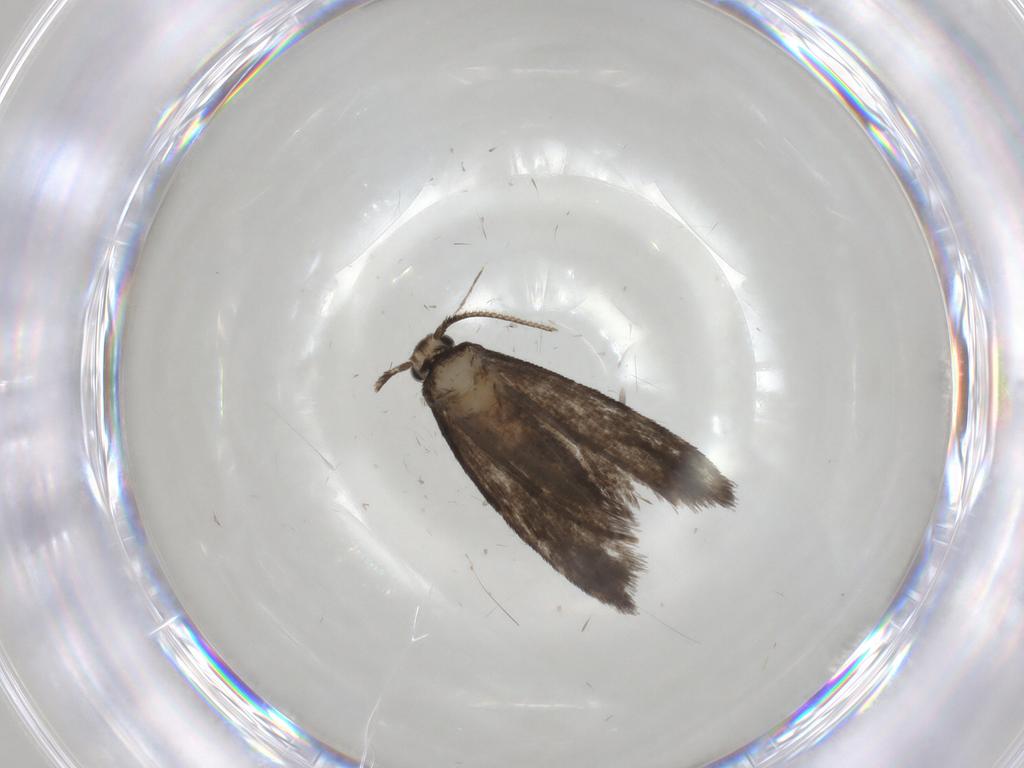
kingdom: Animalia
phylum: Arthropoda
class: Insecta
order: Lepidoptera
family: Psychidae
